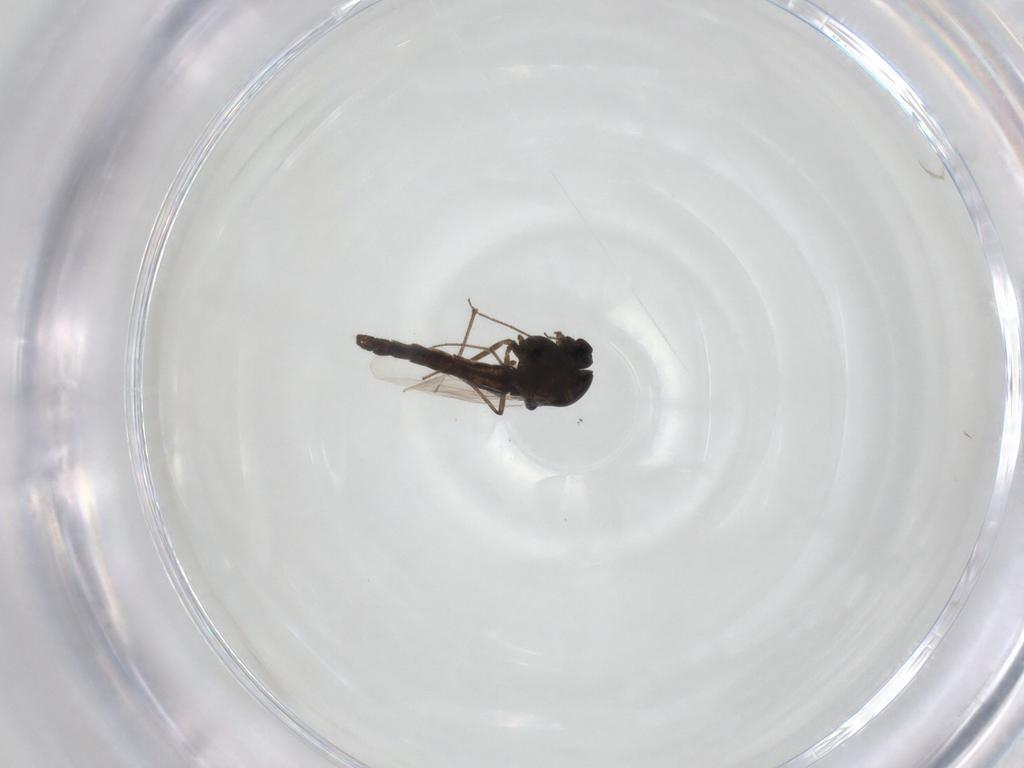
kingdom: Animalia
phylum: Arthropoda
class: Insecta
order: Diptera
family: Chironomidae
